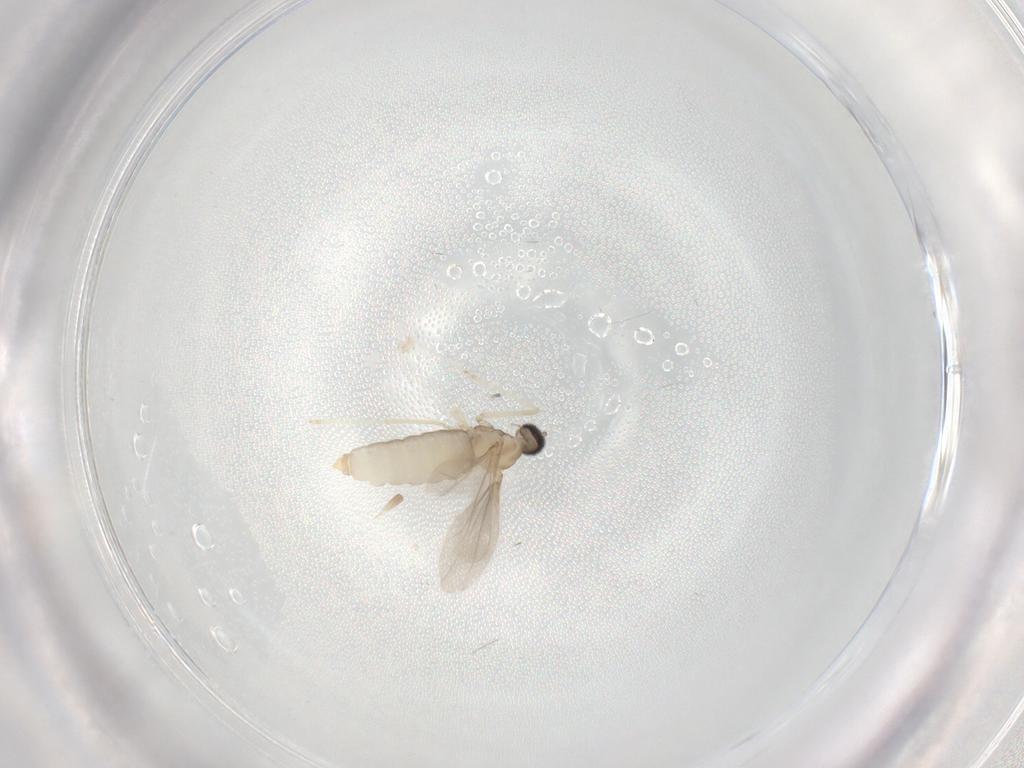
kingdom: Animalia
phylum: Arthropoda
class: Insecta
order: Diptera
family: Cecidomyiidae
